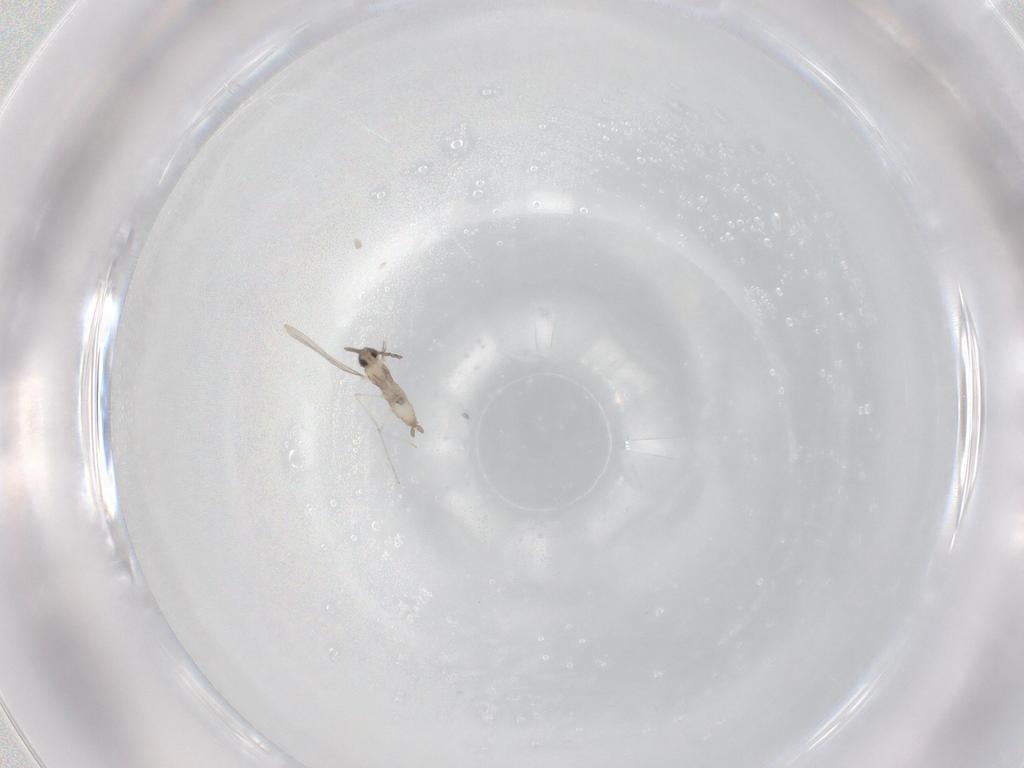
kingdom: Animalia
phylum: Arthropoda
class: Insecta
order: Diptera
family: Cecidomyiidae
